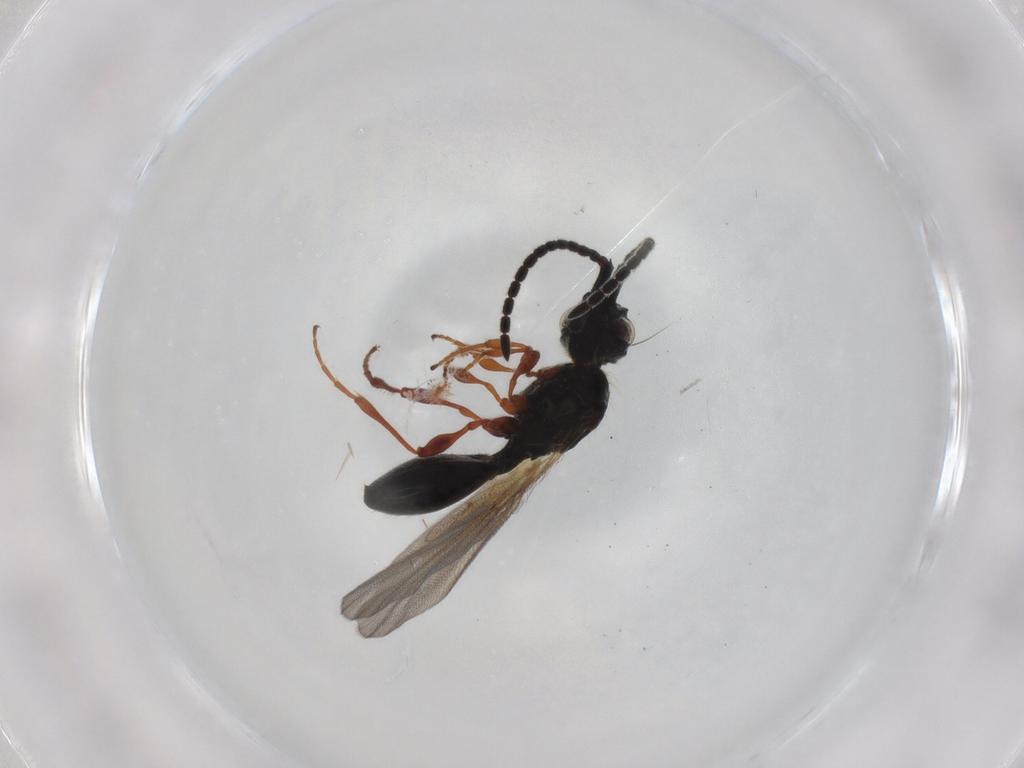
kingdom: Animalia
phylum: Arthropoda
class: Insecta
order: Hymenoptera
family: Diapriidae
